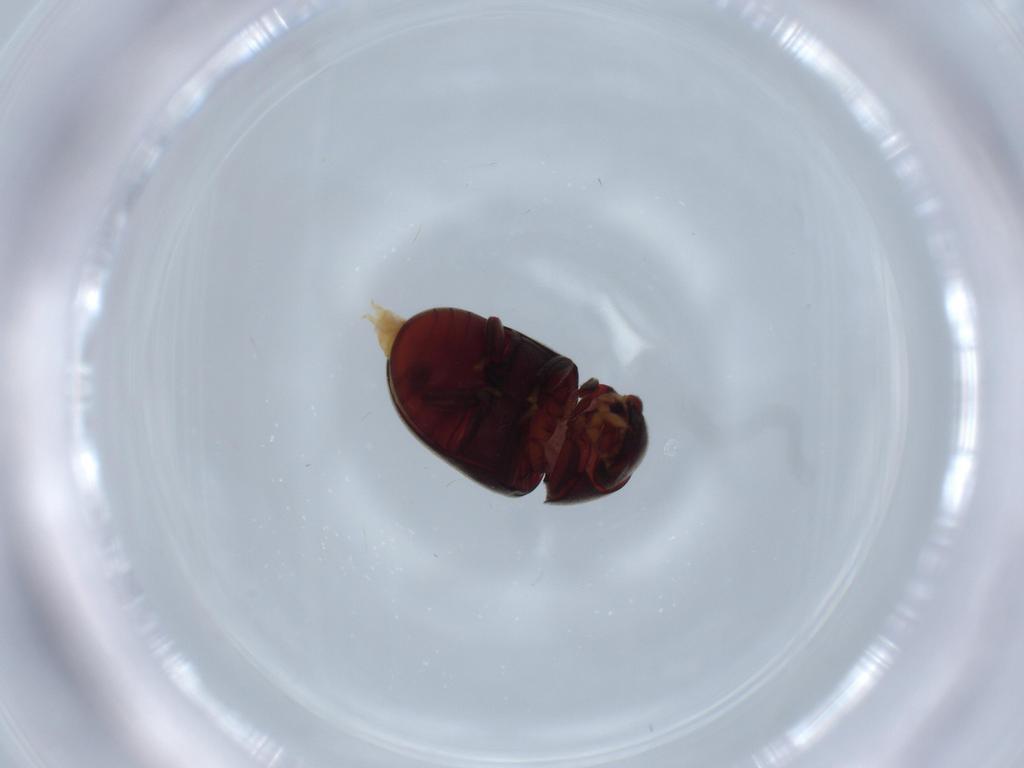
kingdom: Animalia
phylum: Arthropoda
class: Insecta
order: Coleoptera
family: Ptinidae
